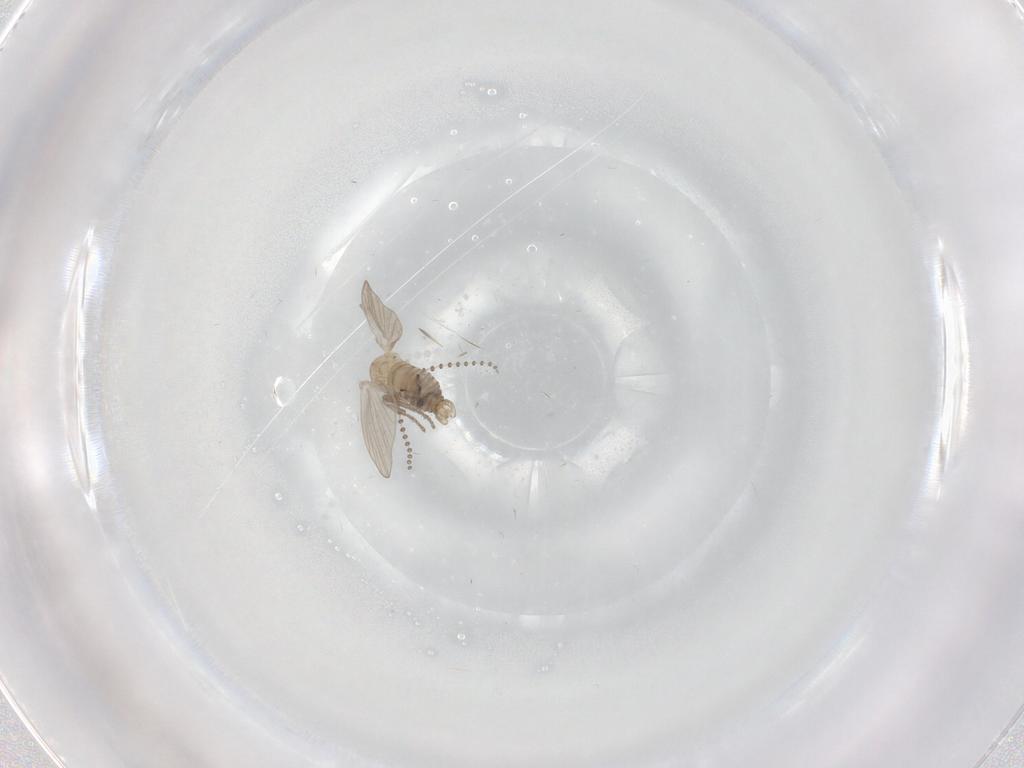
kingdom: Animalia
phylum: Arthropoda
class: Insecta
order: Diptera
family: Psychodidae
